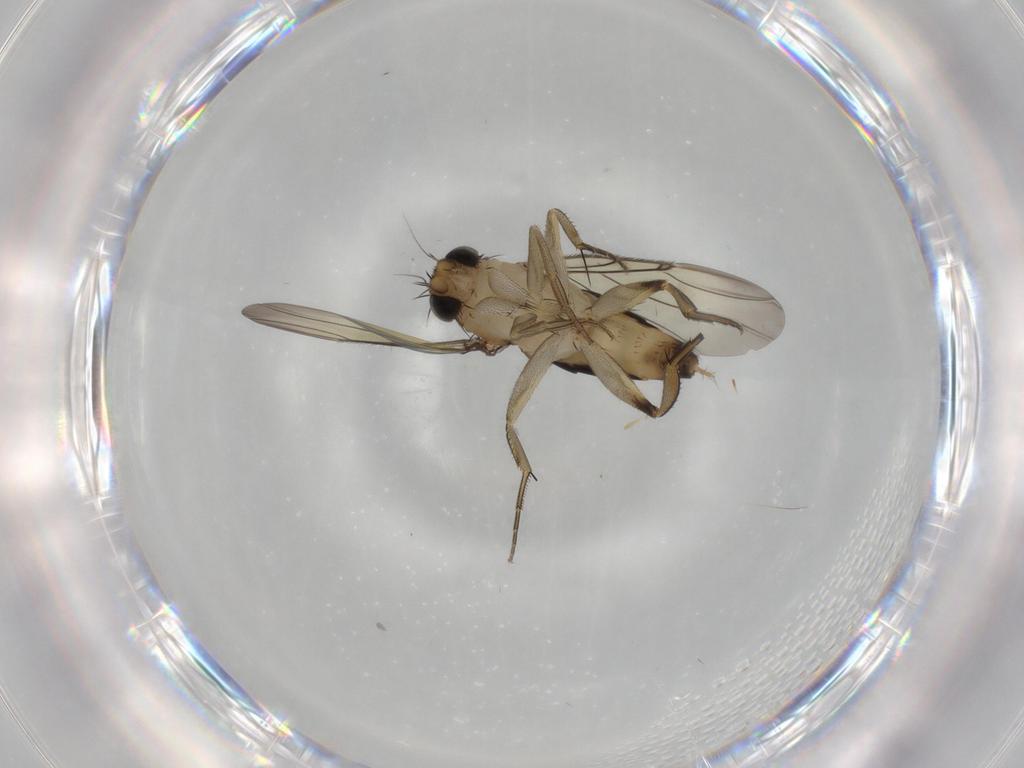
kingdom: Animalia
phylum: Arthropoda
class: Insecta
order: Diptera
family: Phoridae
